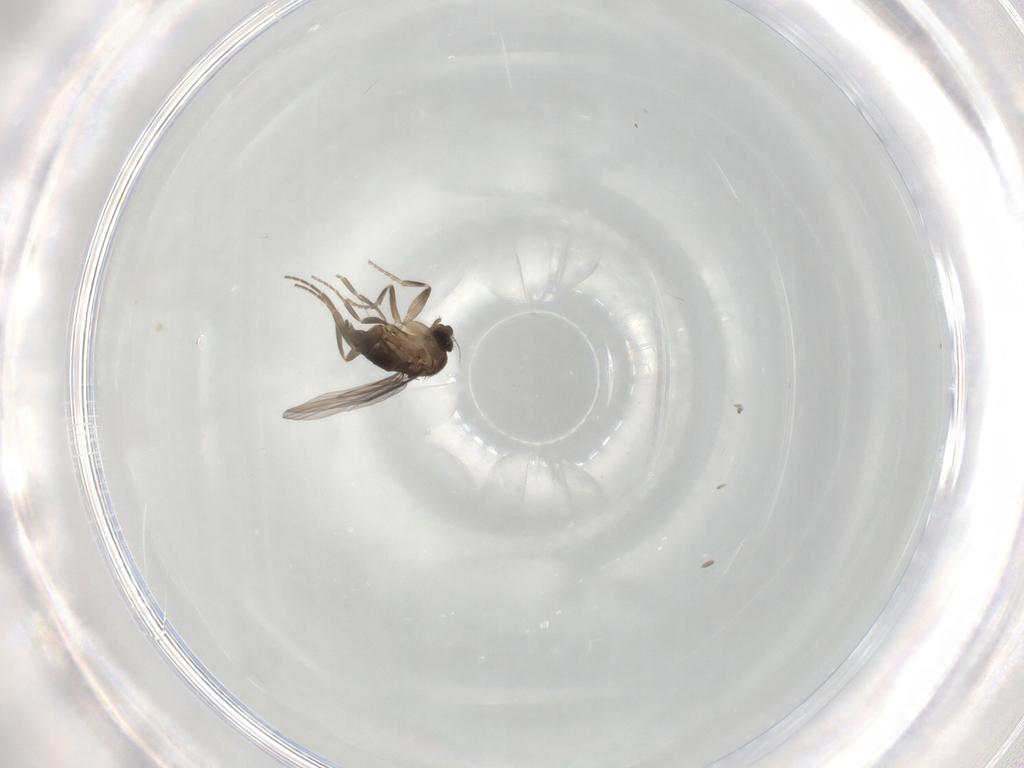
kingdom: Animalia
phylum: Arthropoda
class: Insecta
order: Diptera
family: Phoridae
